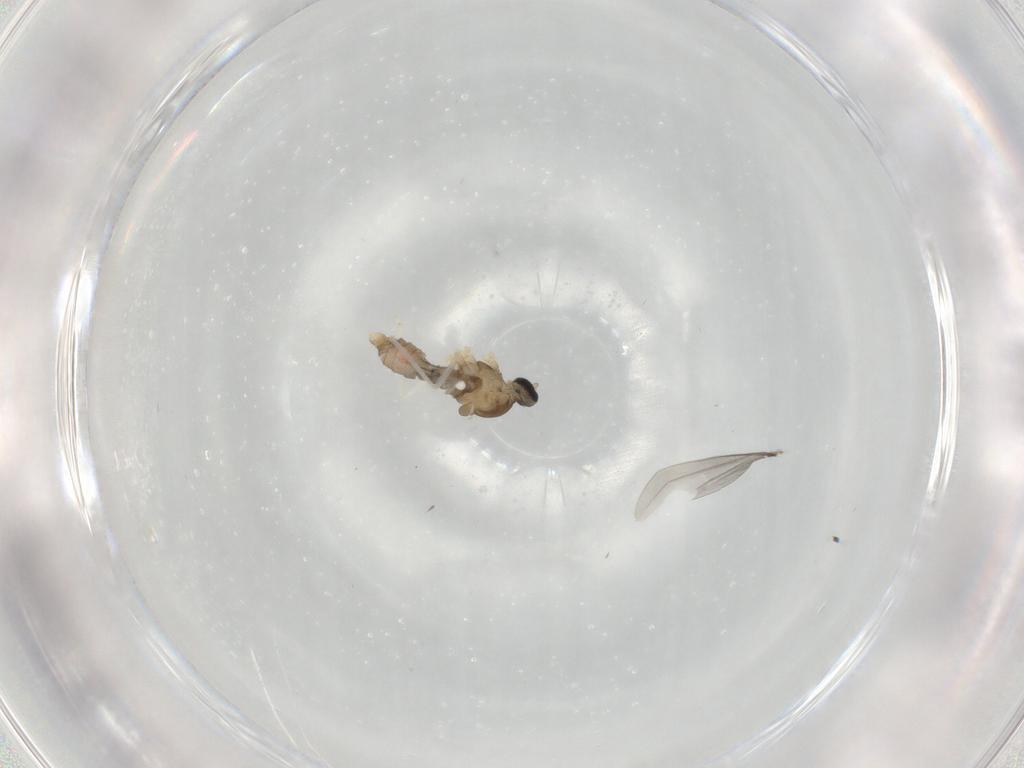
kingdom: Animalia
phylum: Arthropoda
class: Insecta
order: Diptera
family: Cecidomyiidae
